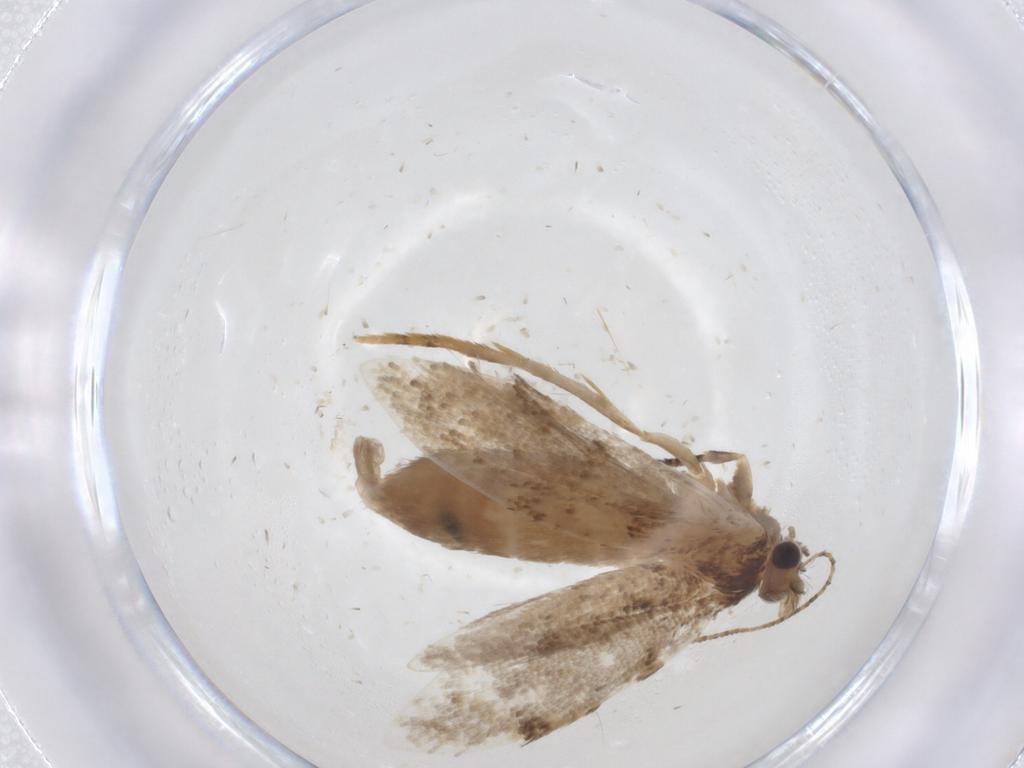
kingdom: Animalia
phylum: Arthropoda
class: Insecta
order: Lepidoptera
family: Tineidae
